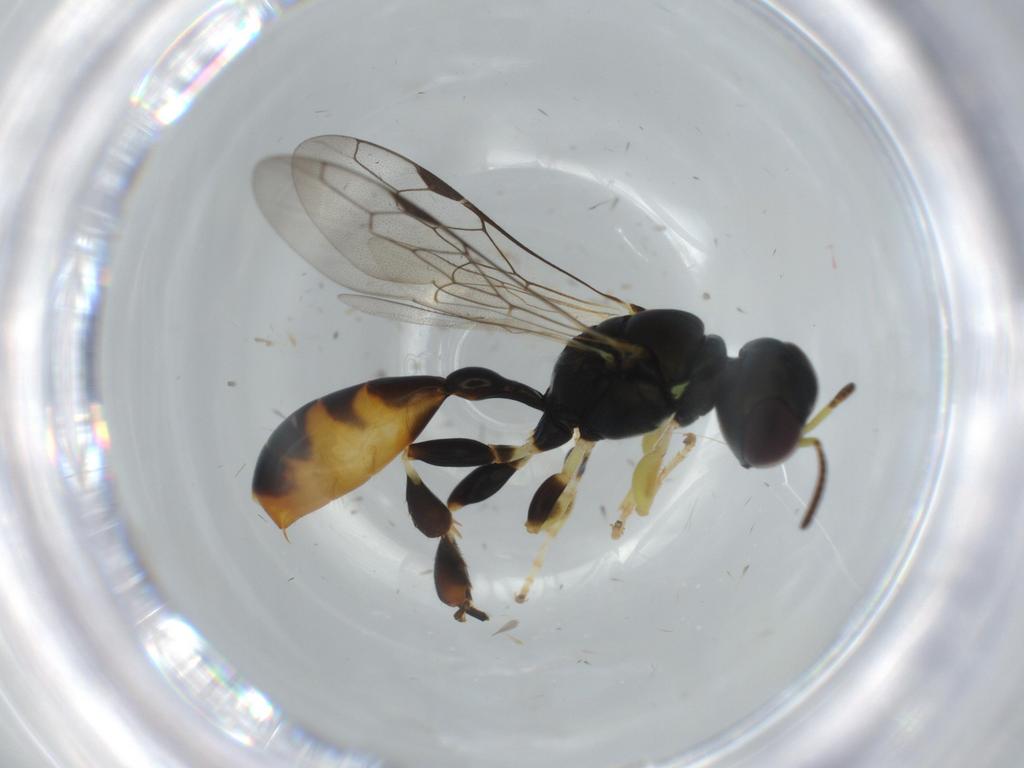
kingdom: Animalia
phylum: Arthropoda
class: Insecta
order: Hymenoptera
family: Crabronidae
